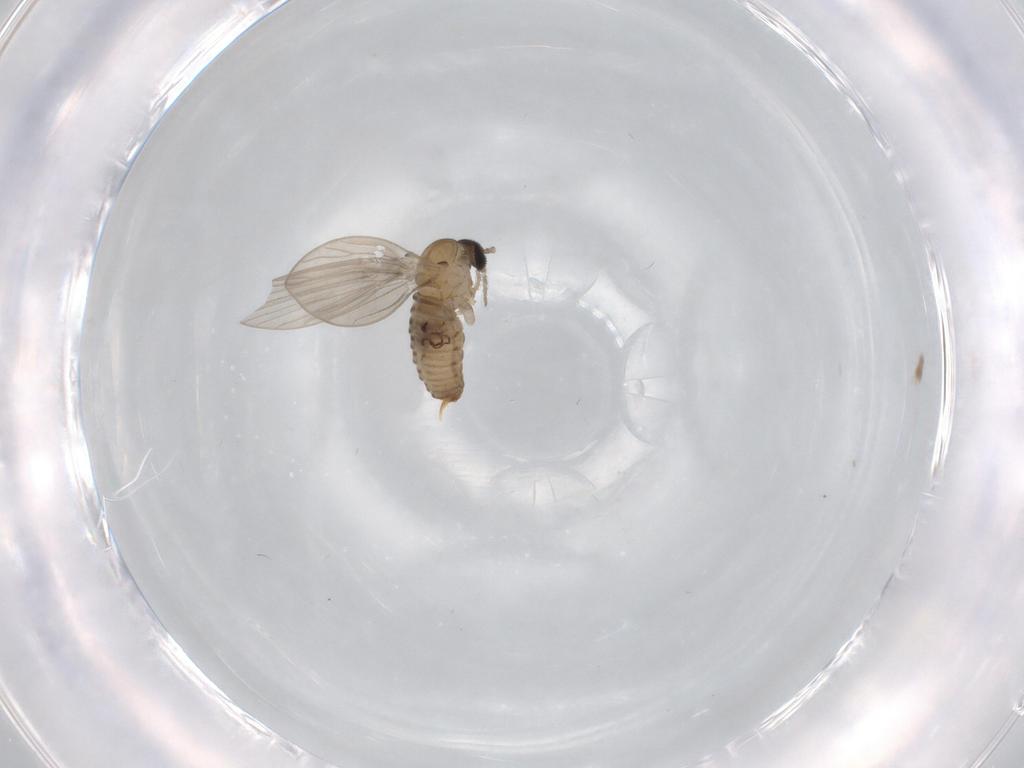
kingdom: Animalia
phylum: Arthropoda
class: Insecta
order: Diptera
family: Psychodidae
